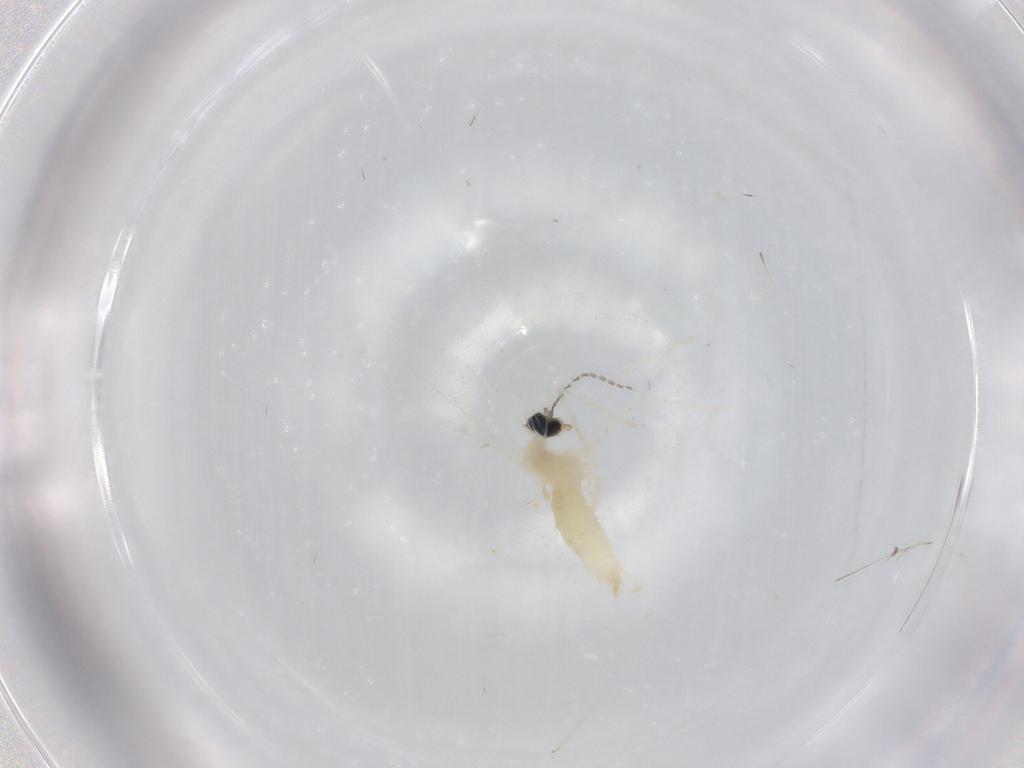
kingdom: Animalia
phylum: Arthropoda
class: Insecta
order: Diptera
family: Cecidomyiidae
